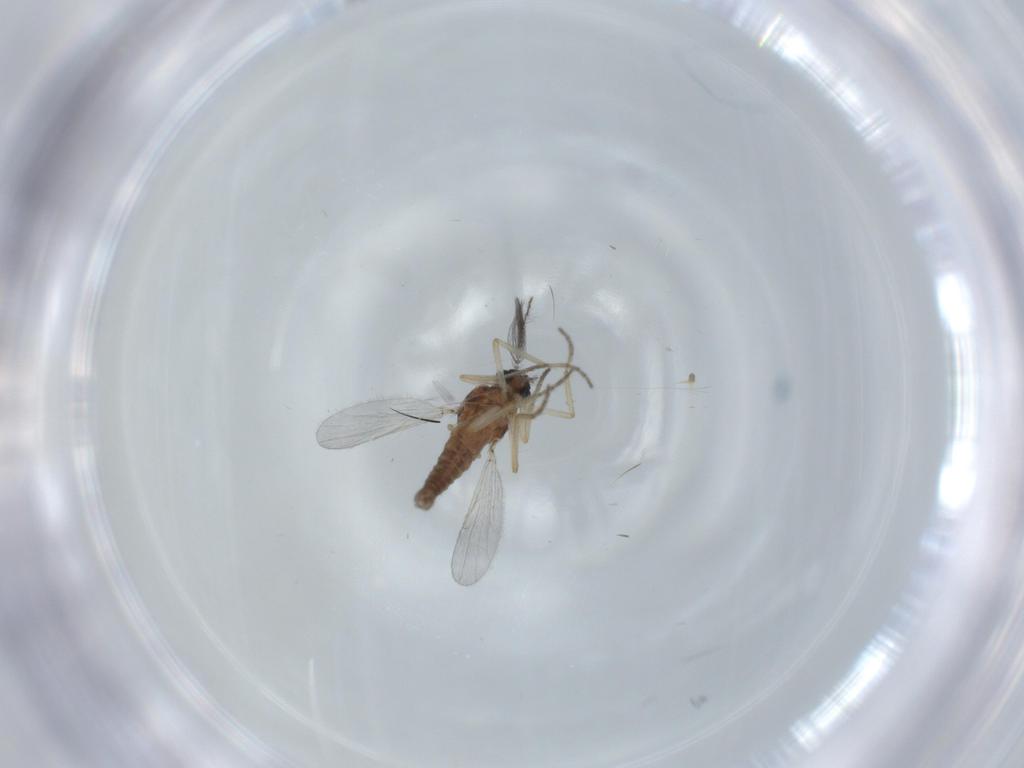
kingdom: Animalia
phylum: Arthropoda
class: Insecta
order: Diptera
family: Ceratopogonidae
